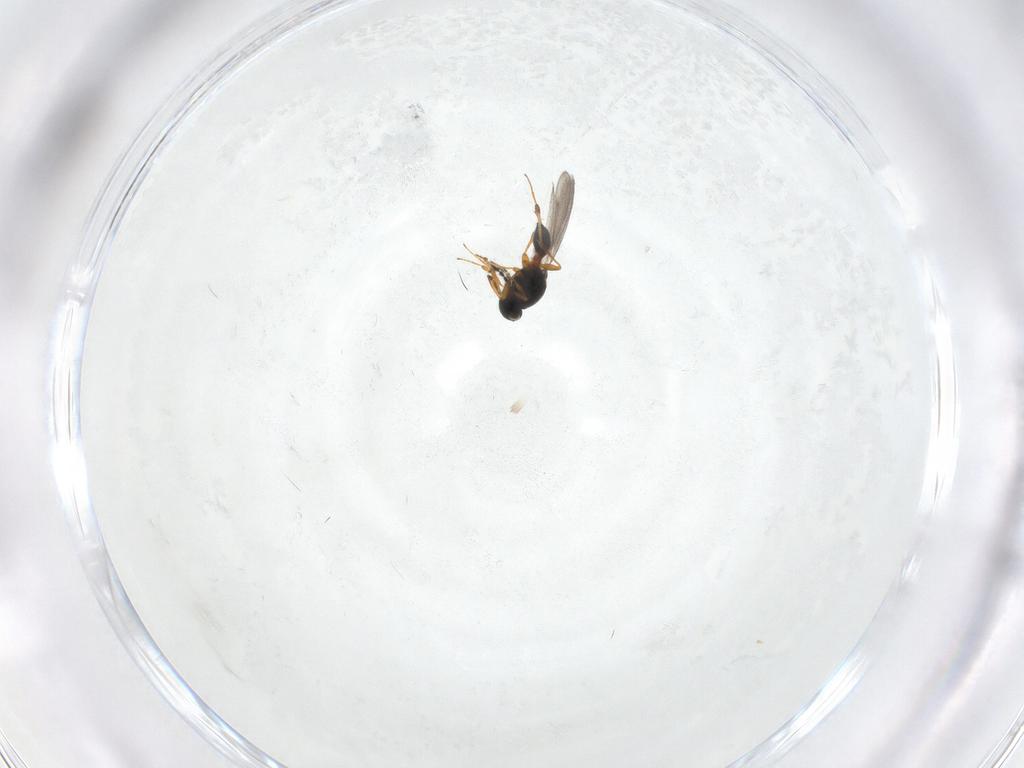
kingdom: Animalia
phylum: Arthropoda
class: Insecta
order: Hymenoptera
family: Platygastridae
